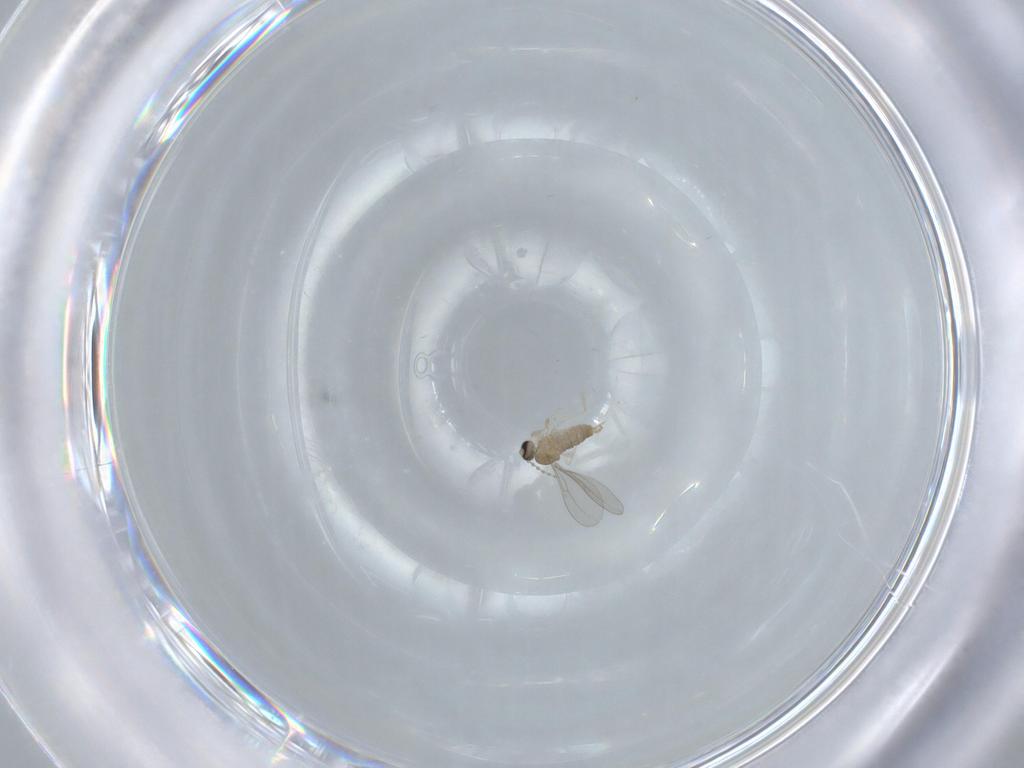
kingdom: Animalia
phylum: Arthropoda
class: Insecta
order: Diptera
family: Cecidomyiidae
